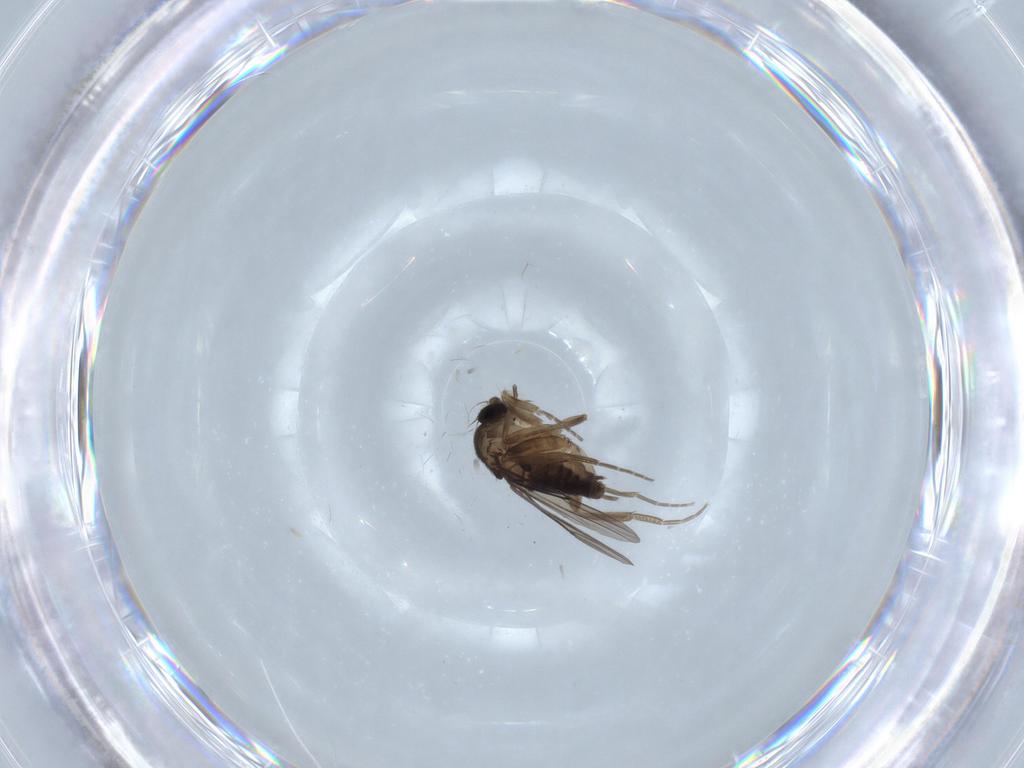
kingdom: Animalia
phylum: Arthropoda
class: Insecta
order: Diptera
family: Phoridae
